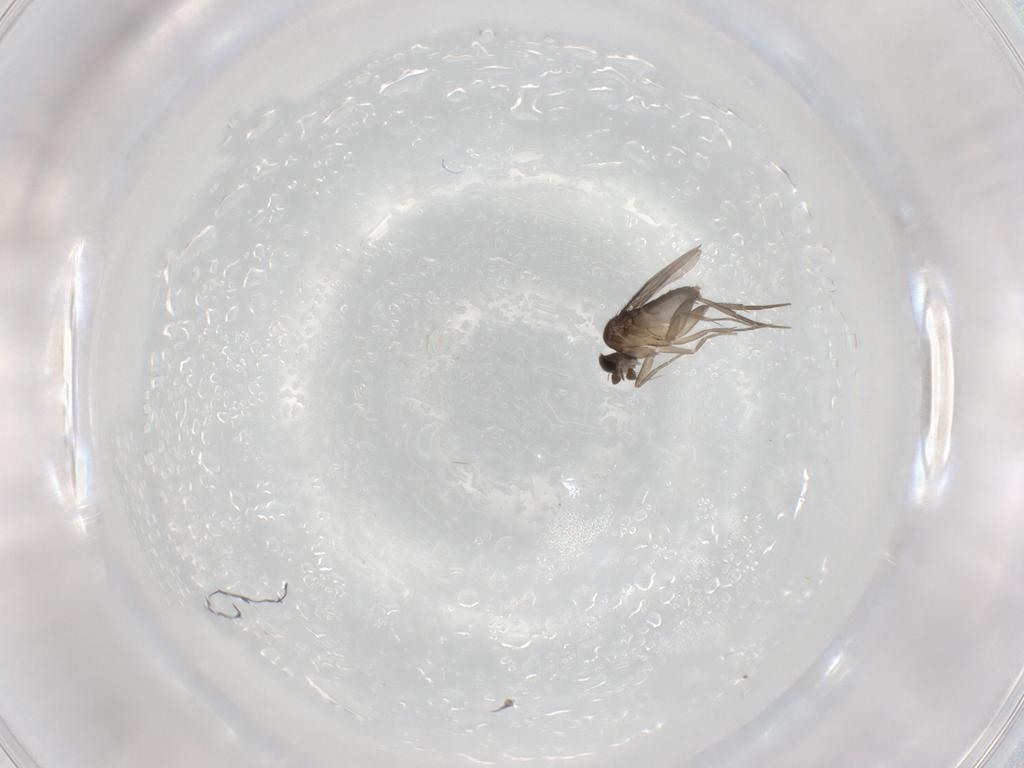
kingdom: Animalia
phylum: Arthropoda
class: Insecta
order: Diptera
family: Phoridae
